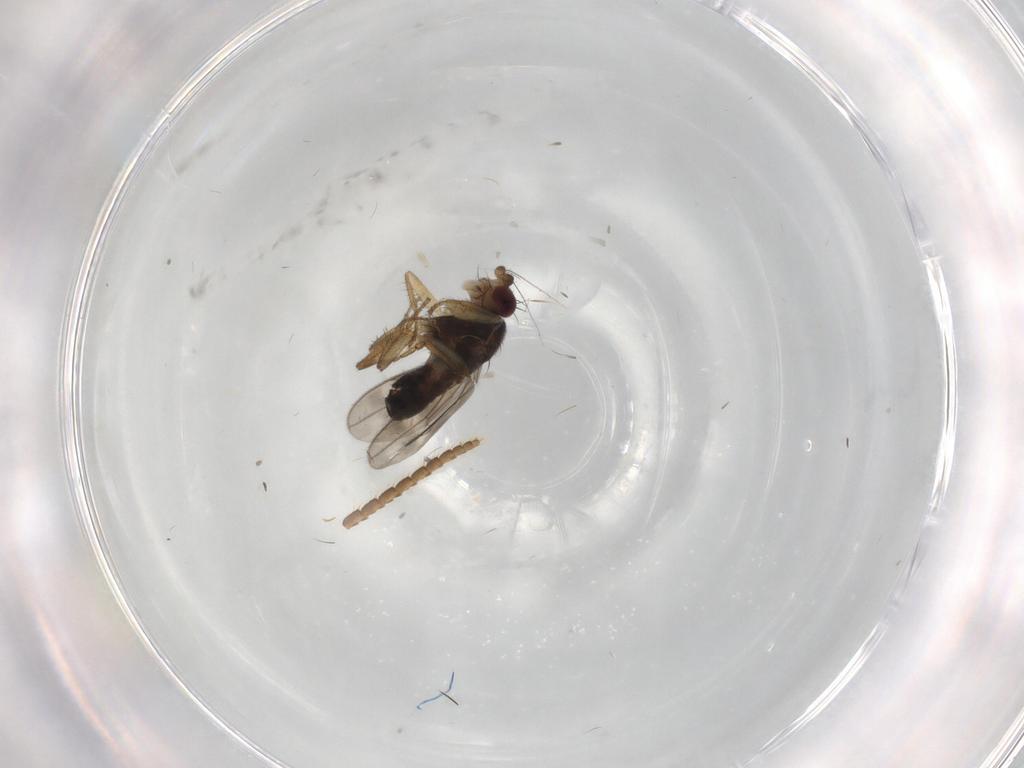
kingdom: Animalia
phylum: Arthropoda
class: Insecta
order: Diptera
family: Sphaeroceridae
